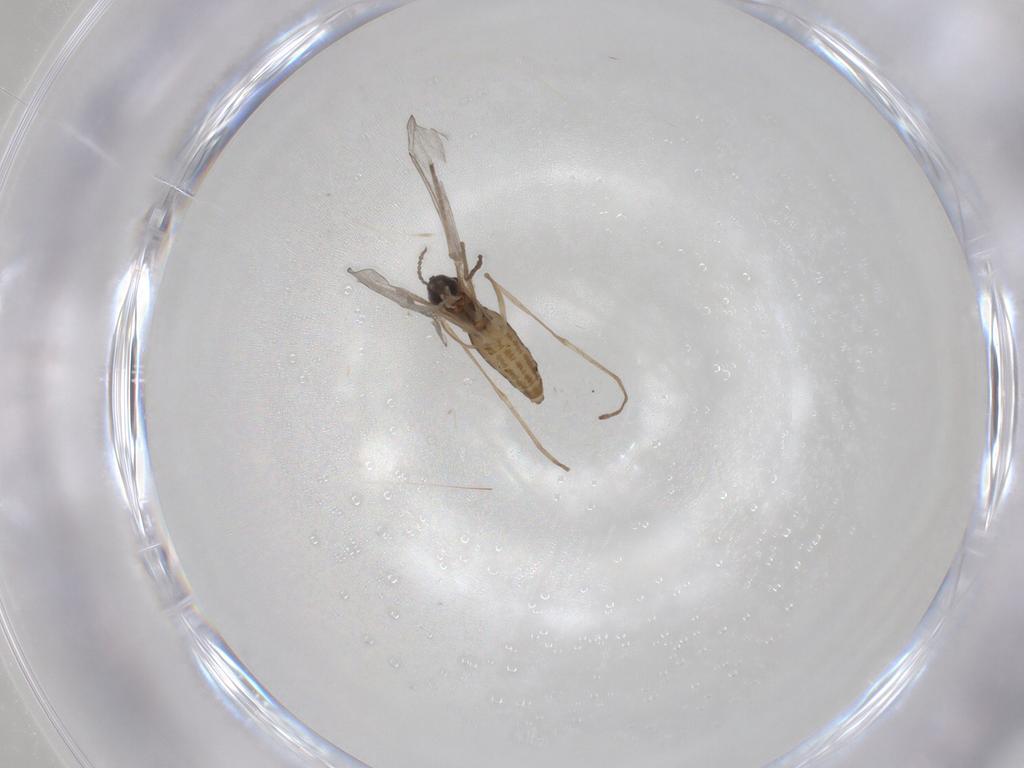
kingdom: Animalia
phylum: Arthropoda
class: Insecta
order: Diptera
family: Cecidomyiidae
